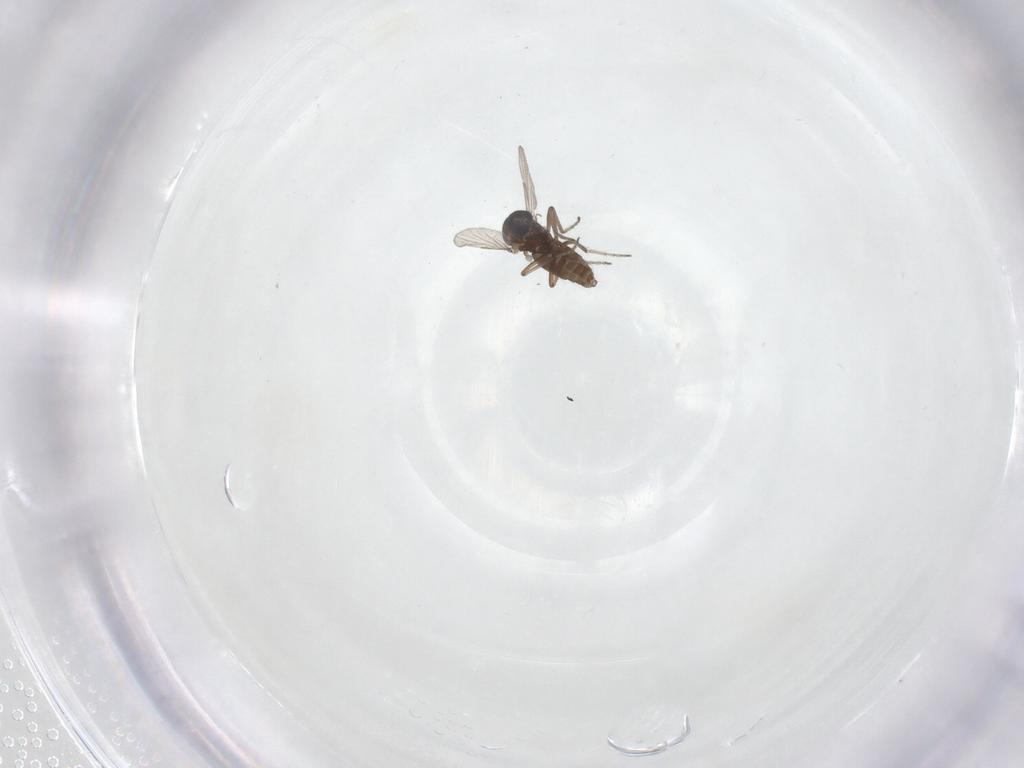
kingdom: Animalia
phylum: Arthropoda
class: Insecta
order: Diptera
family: Ceratopogonidae
